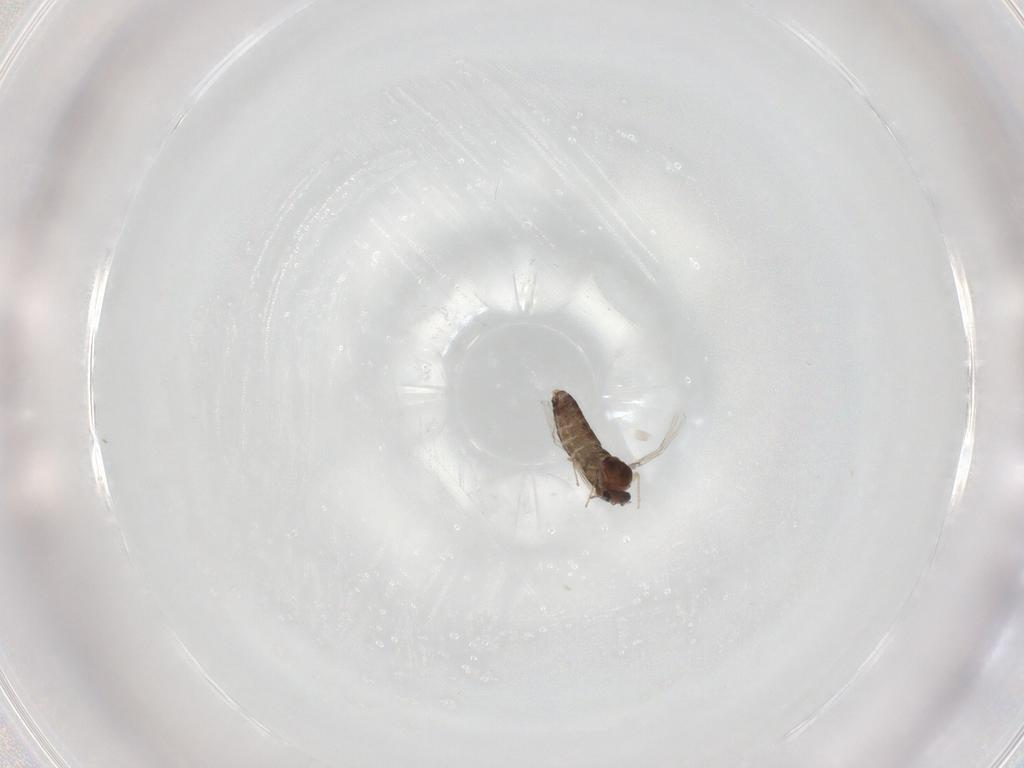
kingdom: Animalia
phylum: Arthropoda
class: Insecta
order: Diptera
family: Chironomidae
